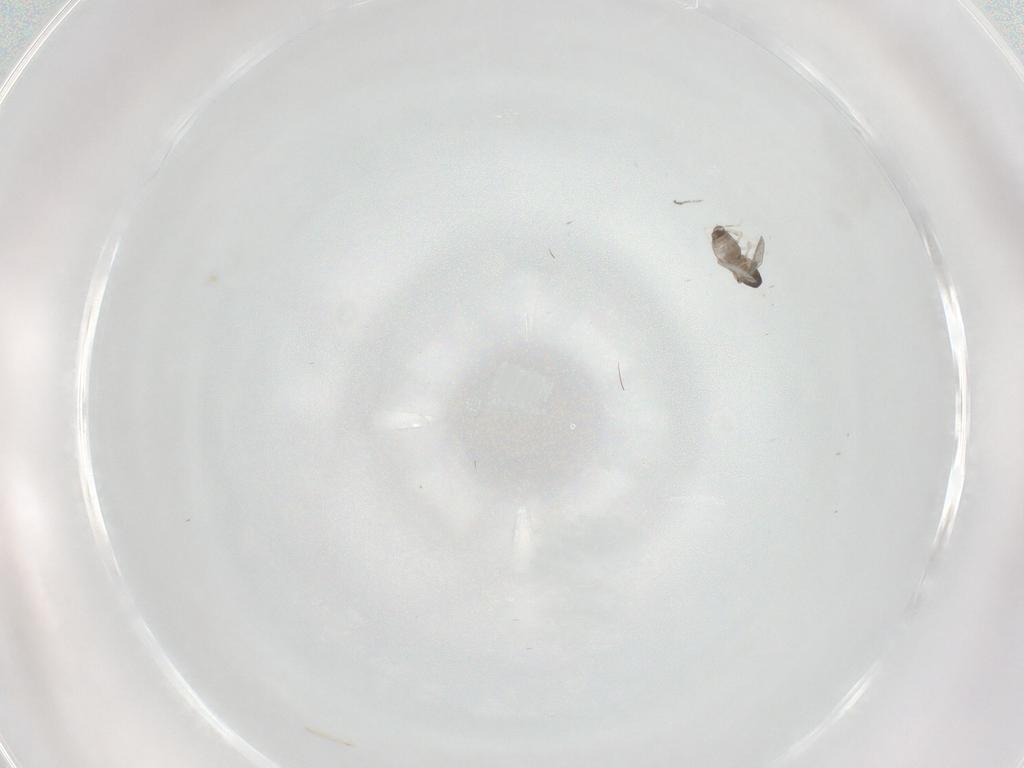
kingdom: Animalia
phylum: Arthropoda
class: Insecta
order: Diptera
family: Cecidomyiidae
